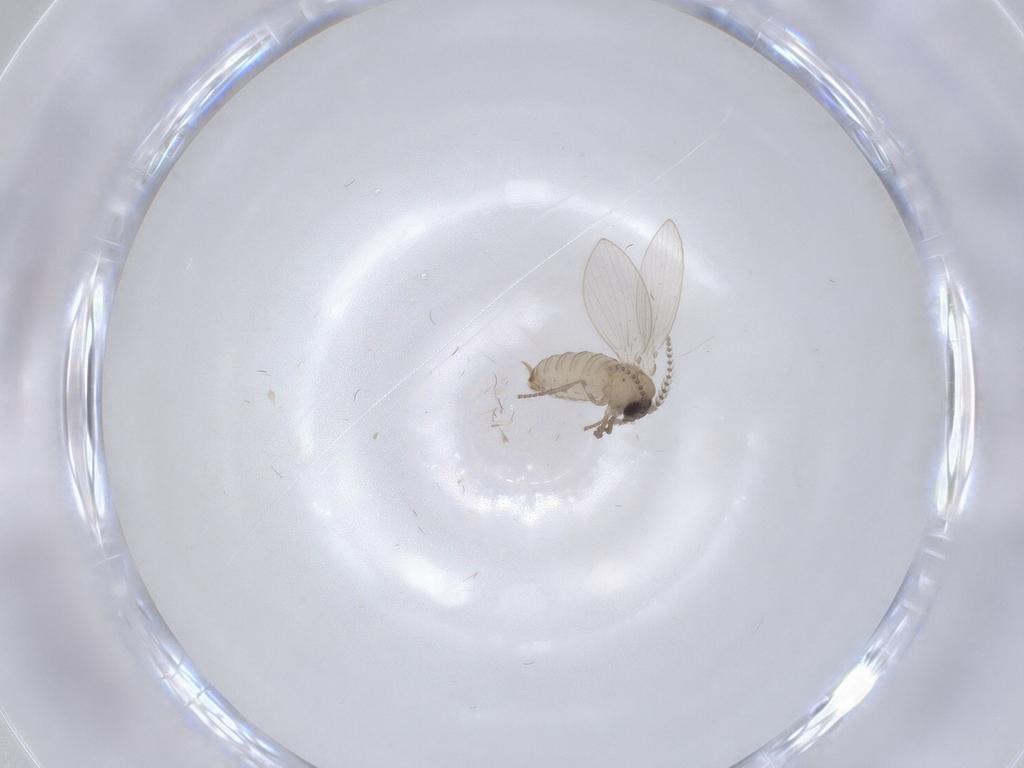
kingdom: Animalia
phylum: Arthropoda
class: Insecta
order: Diptera
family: Psychodidae
